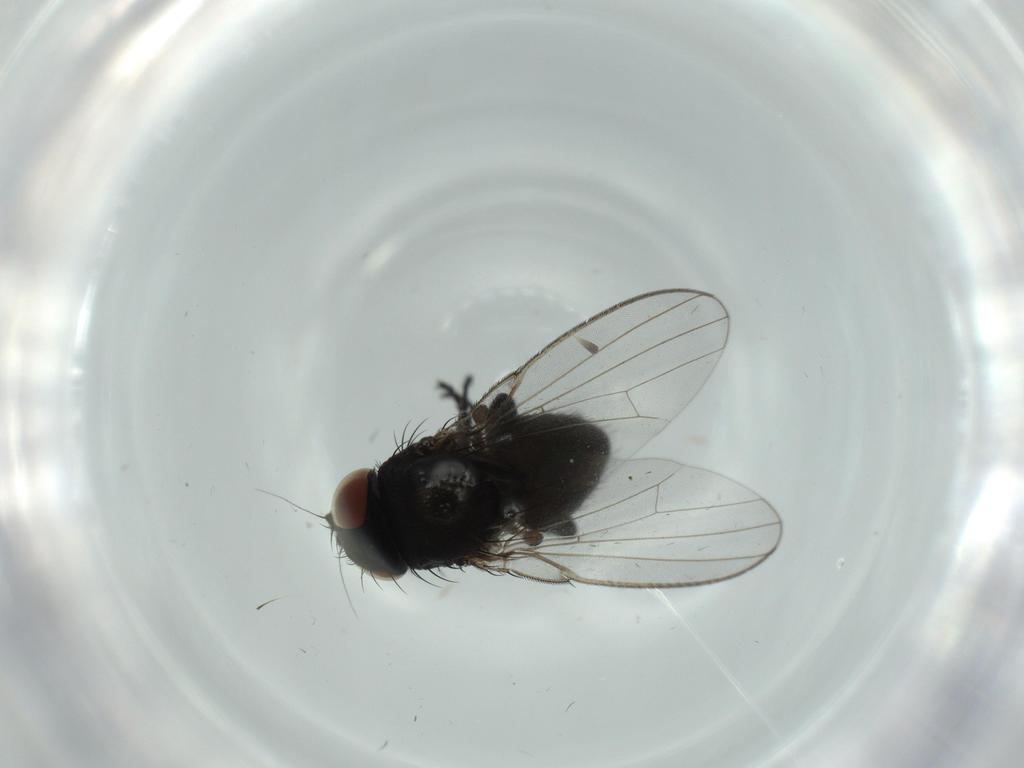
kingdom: Animalia
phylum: Arthropoda
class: Insecta
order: Diptera
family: Milichiidae
